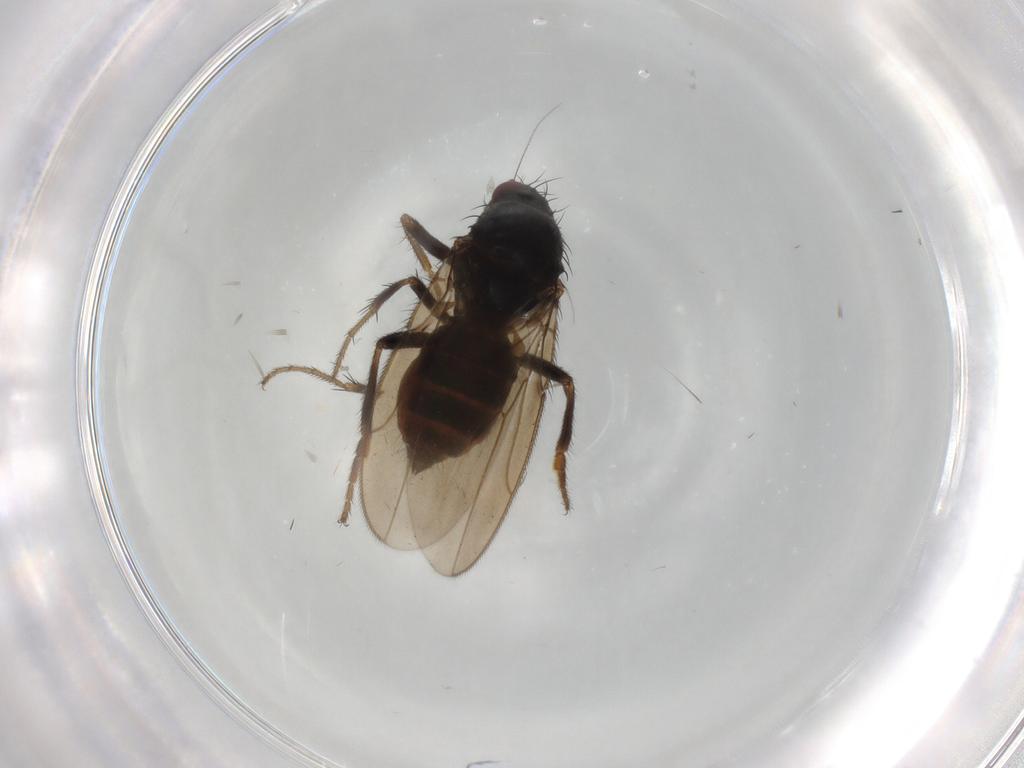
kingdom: Animalia
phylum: Arthropoda
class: Insecta
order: Diptera
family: Sphaeroceridae
